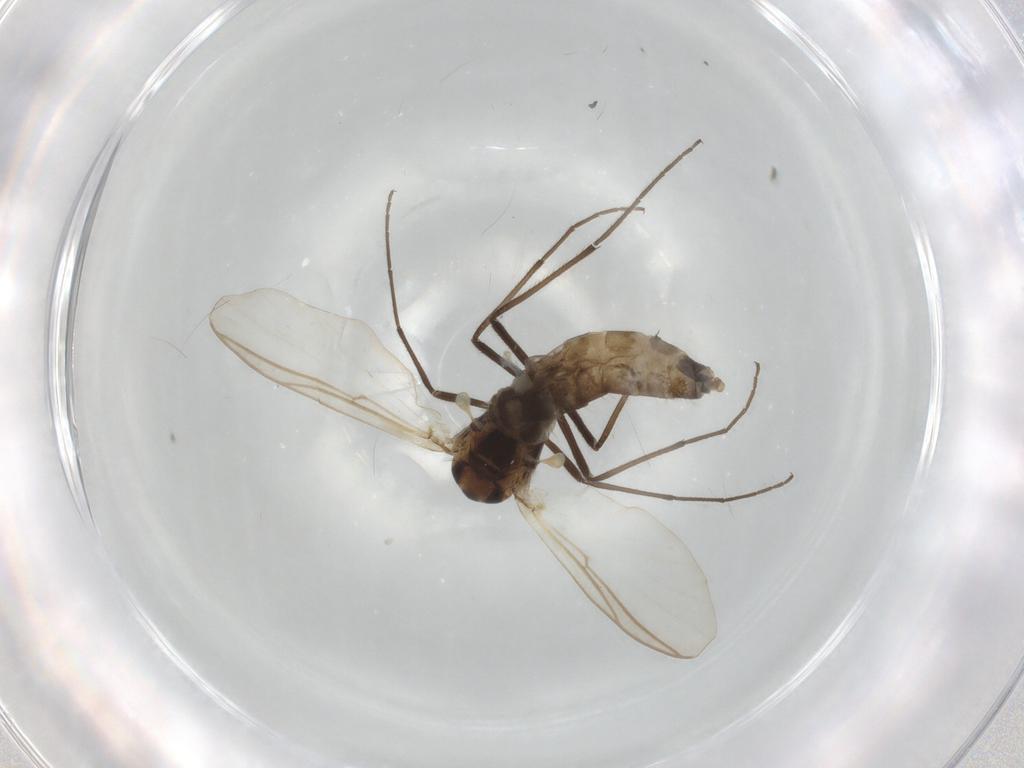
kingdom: Animalia
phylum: Arthropoda
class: Insecta
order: Diptera
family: Chironomidae
